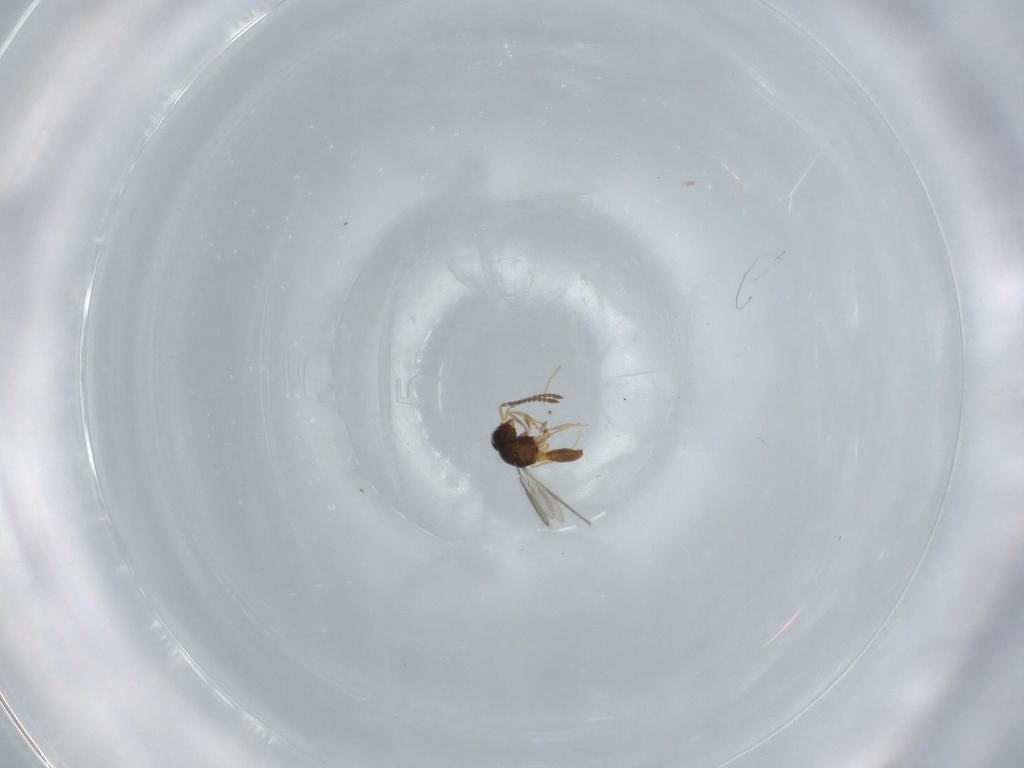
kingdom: Animalia
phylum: Arthropoda
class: Insecta
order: Hymenoptera
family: Scelionidae
